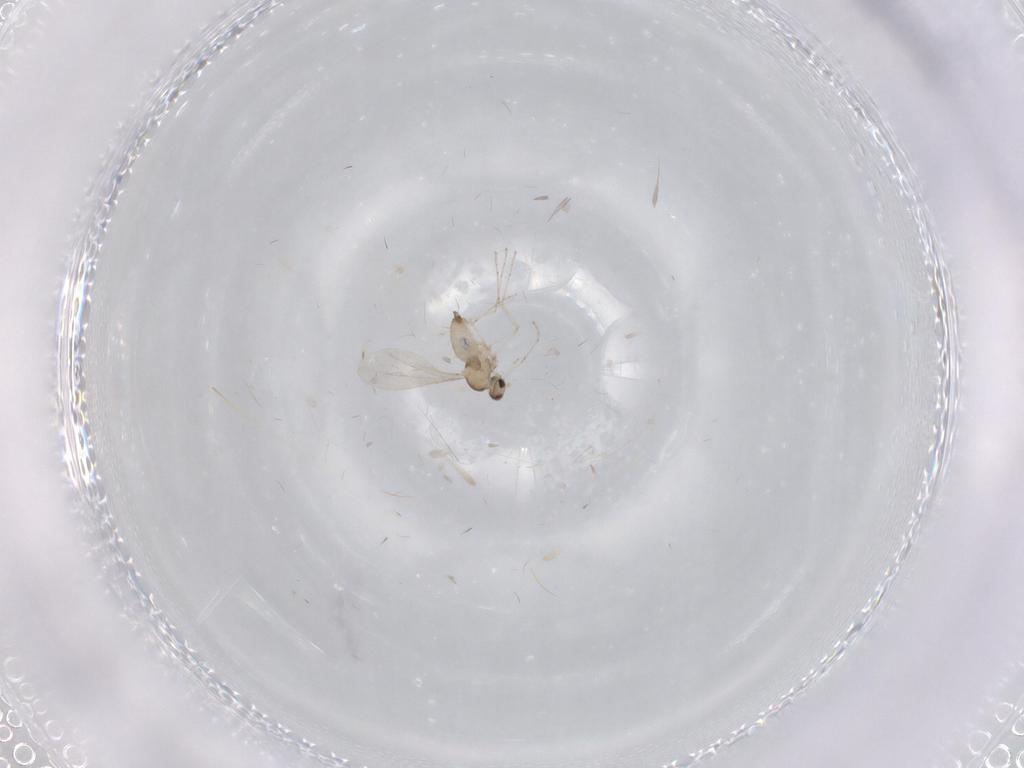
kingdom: Animalia
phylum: Arthropoda
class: Insecta
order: Diptera
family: Cecidomyiidae
